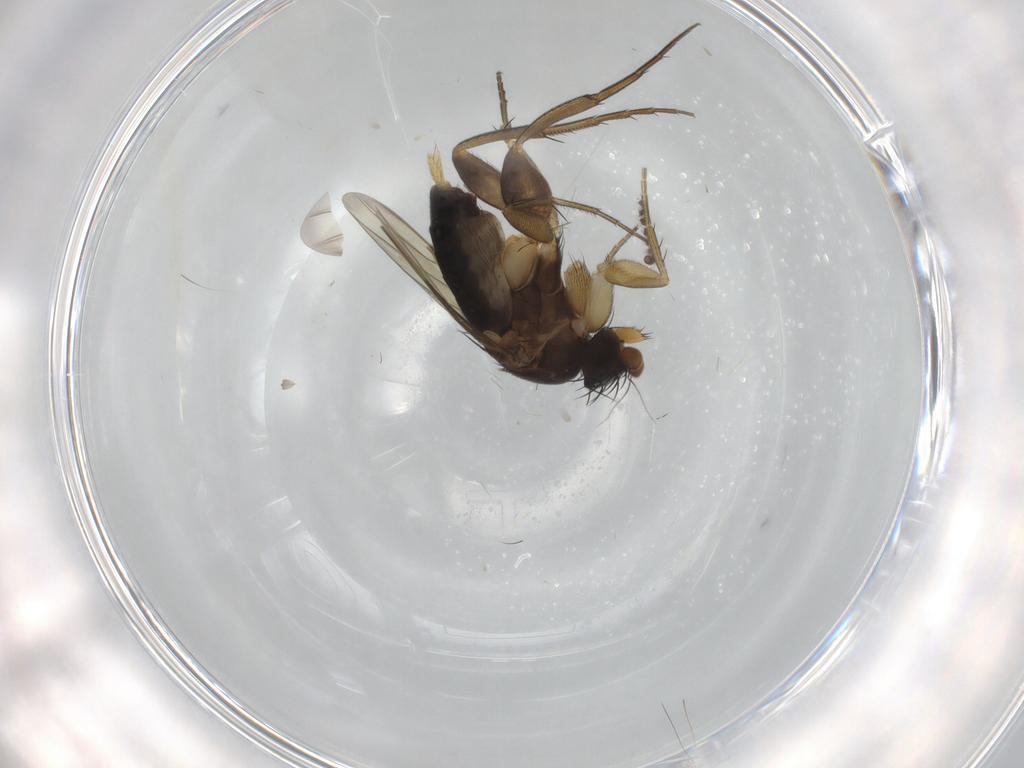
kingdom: Animalia
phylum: Arthropoda
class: Insecta
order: Diptera
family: Phoridae
